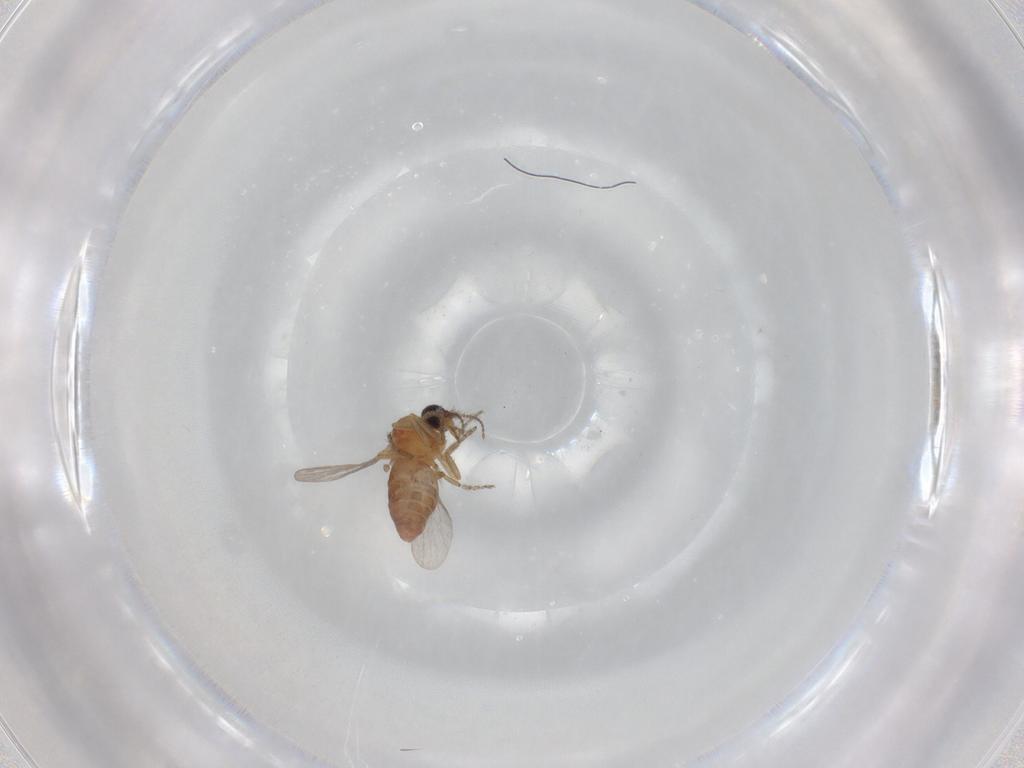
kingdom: Animalia
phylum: Arthropoda
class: Insecta
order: Diptera
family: Ceratopogonidae
